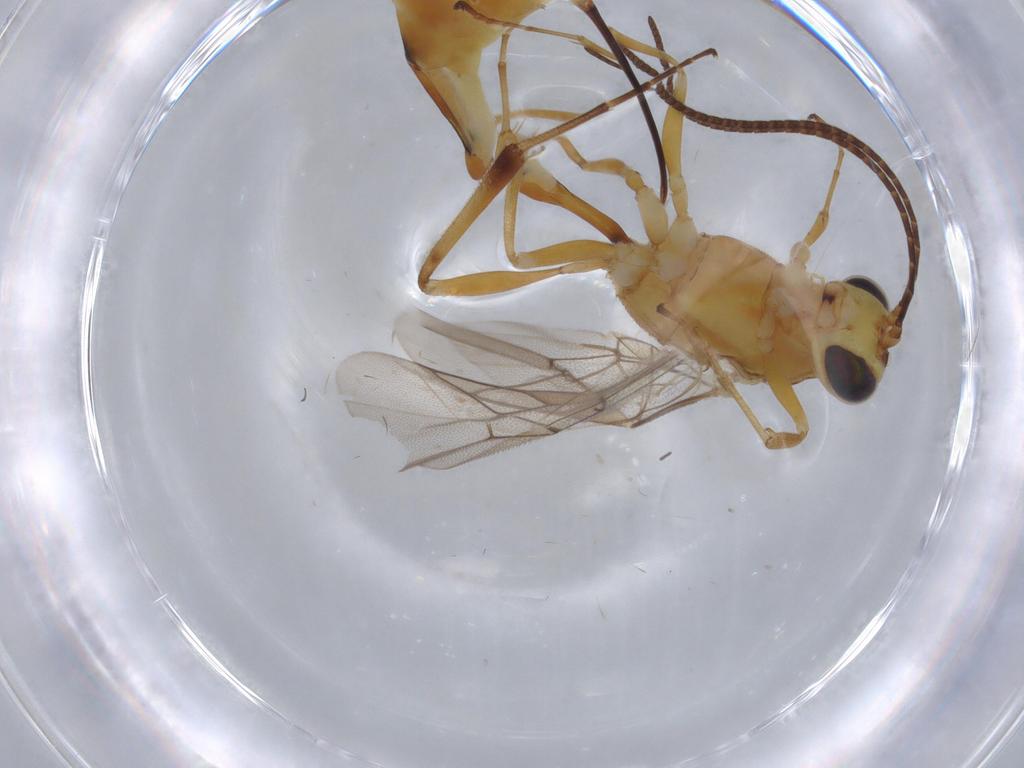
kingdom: Animalia
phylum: Arthropoda
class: Insecta
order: Hymenoptera
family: Ichneumonidae
